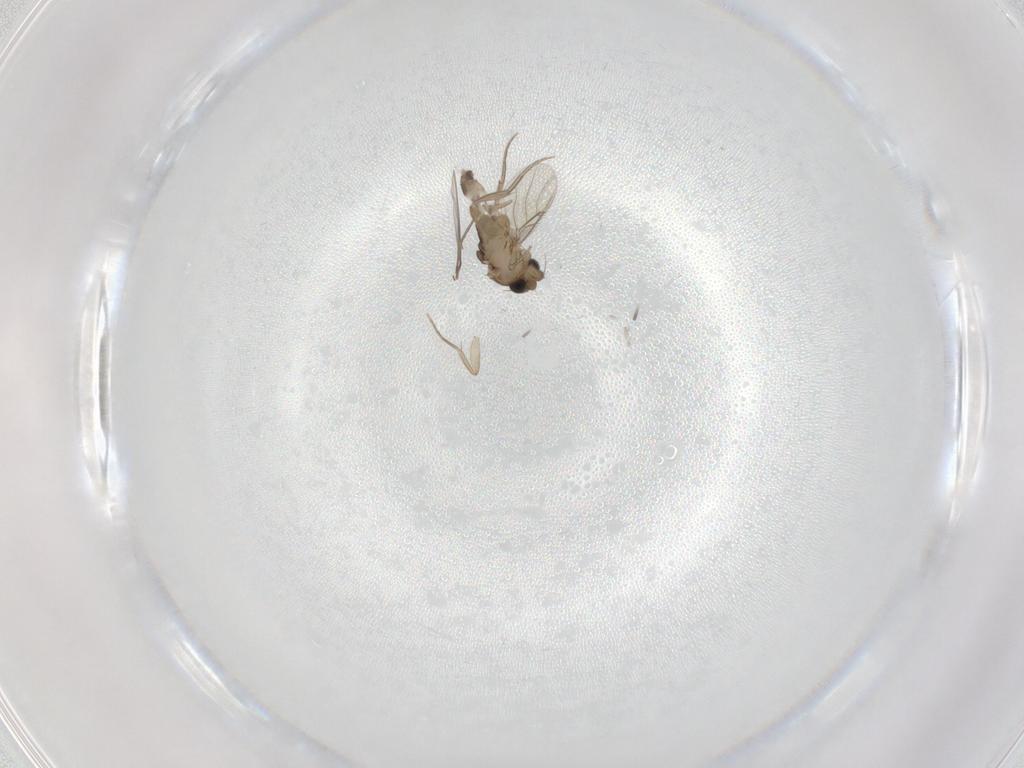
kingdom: Animalia
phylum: Arthropoda
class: Insecta
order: Diptera
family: Phoridae
